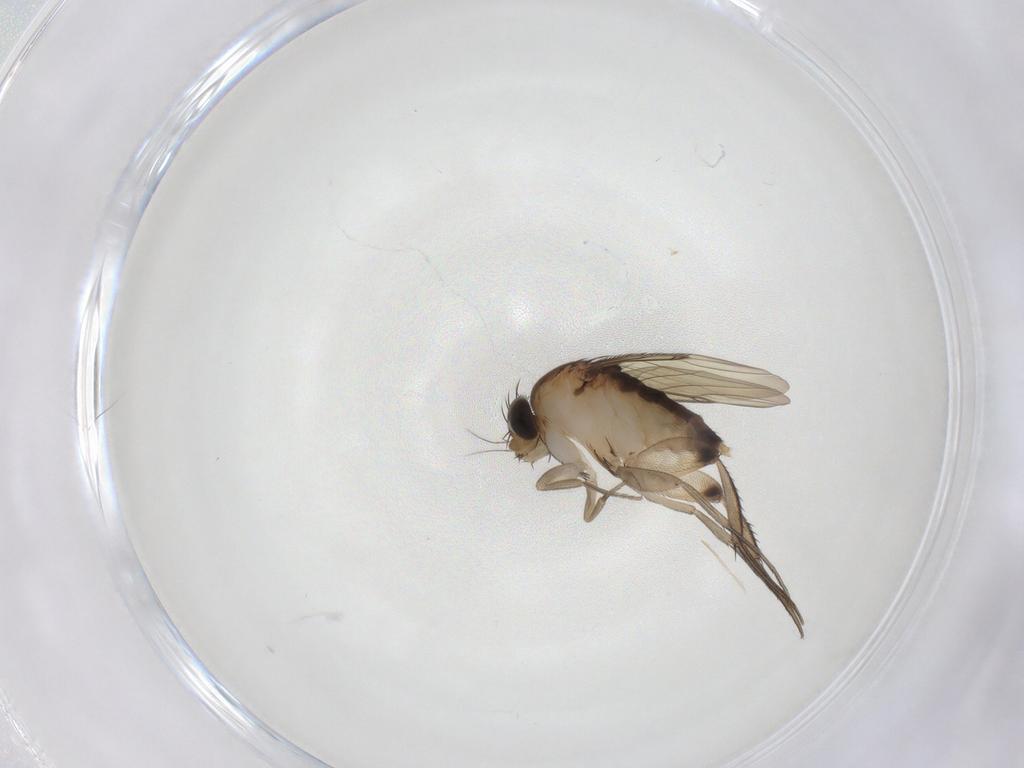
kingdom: Animalia
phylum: Arthropoda
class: Insecta
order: Diptera
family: Phoridae
